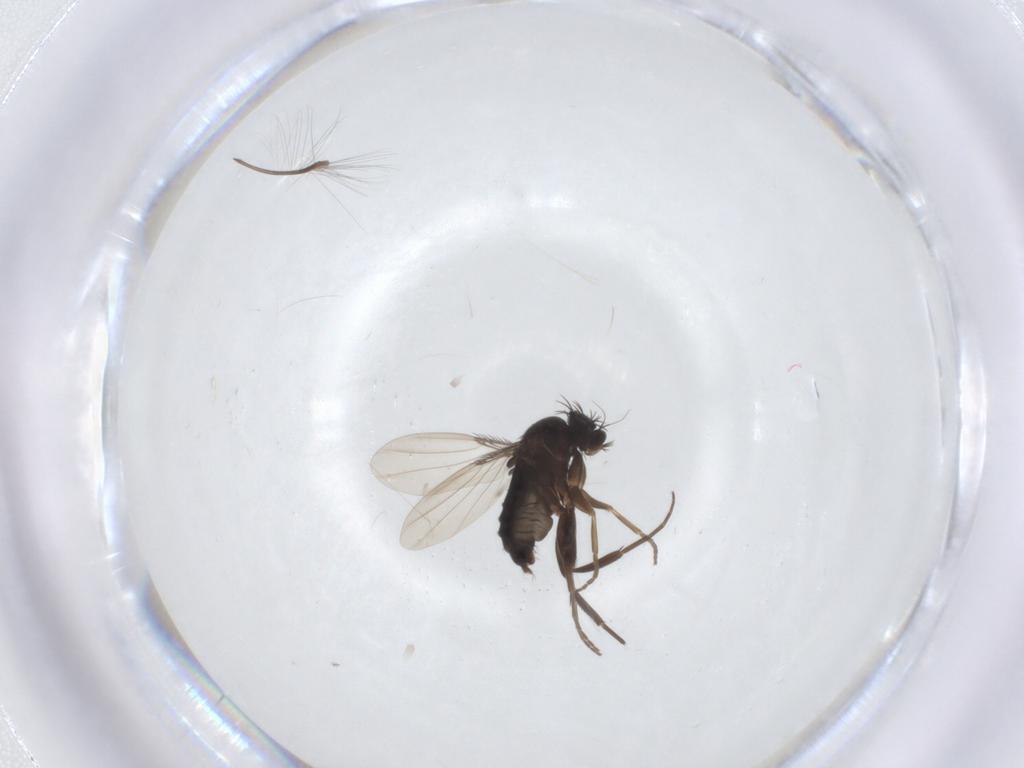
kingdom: Animalia
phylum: Arthropoda
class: Insecta
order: Diptera
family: Phoridae
